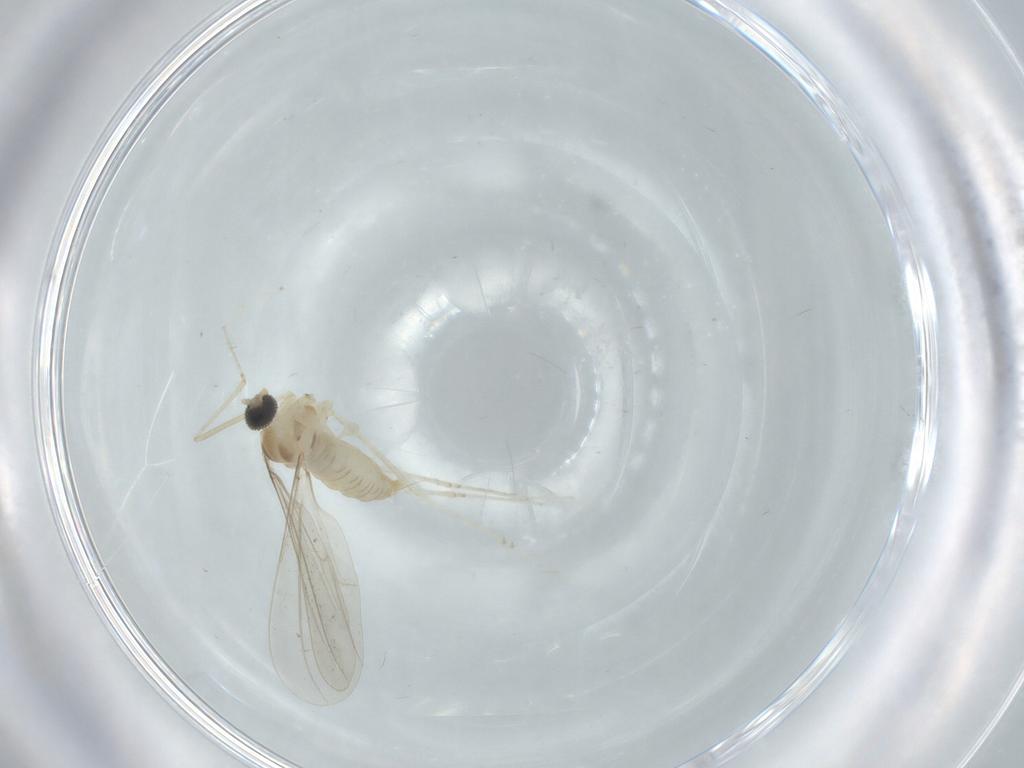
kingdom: Animalia
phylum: Arthropoda
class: Insecta
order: Diptera
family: Cecidomyiidae
